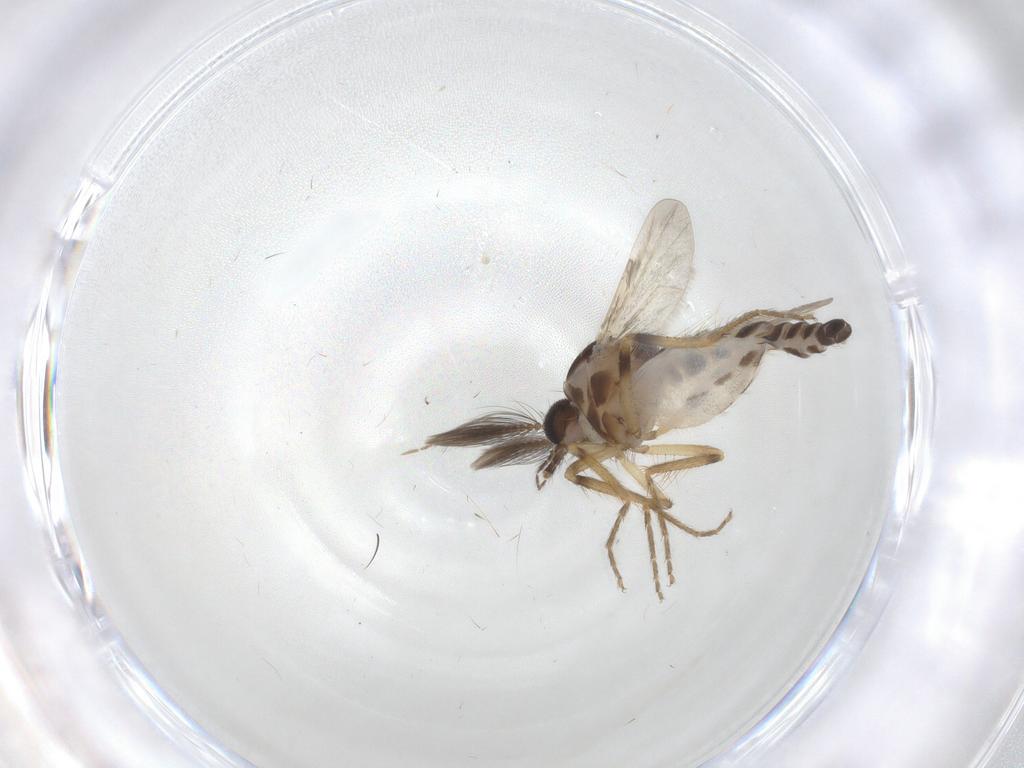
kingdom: Animalia
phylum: Arthropoda
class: Insecta
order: Diptera
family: Ceratopogonidae
